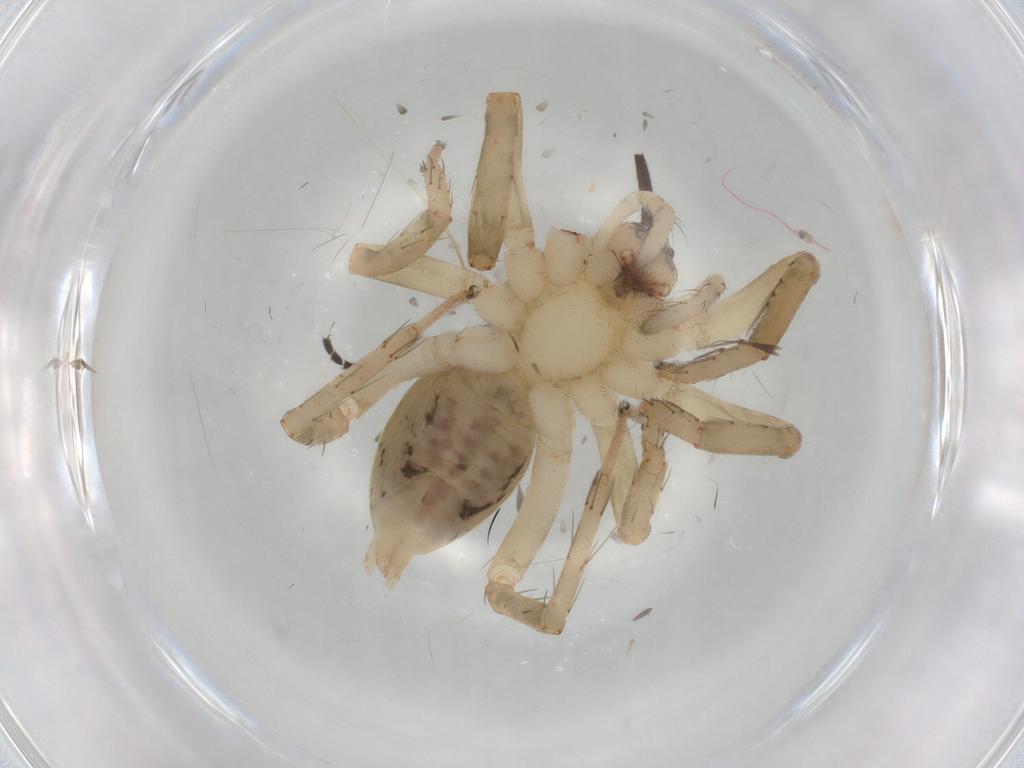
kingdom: Animalia
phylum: Arthropoda
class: Arachnida
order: Araneae
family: Anyphaenidae
